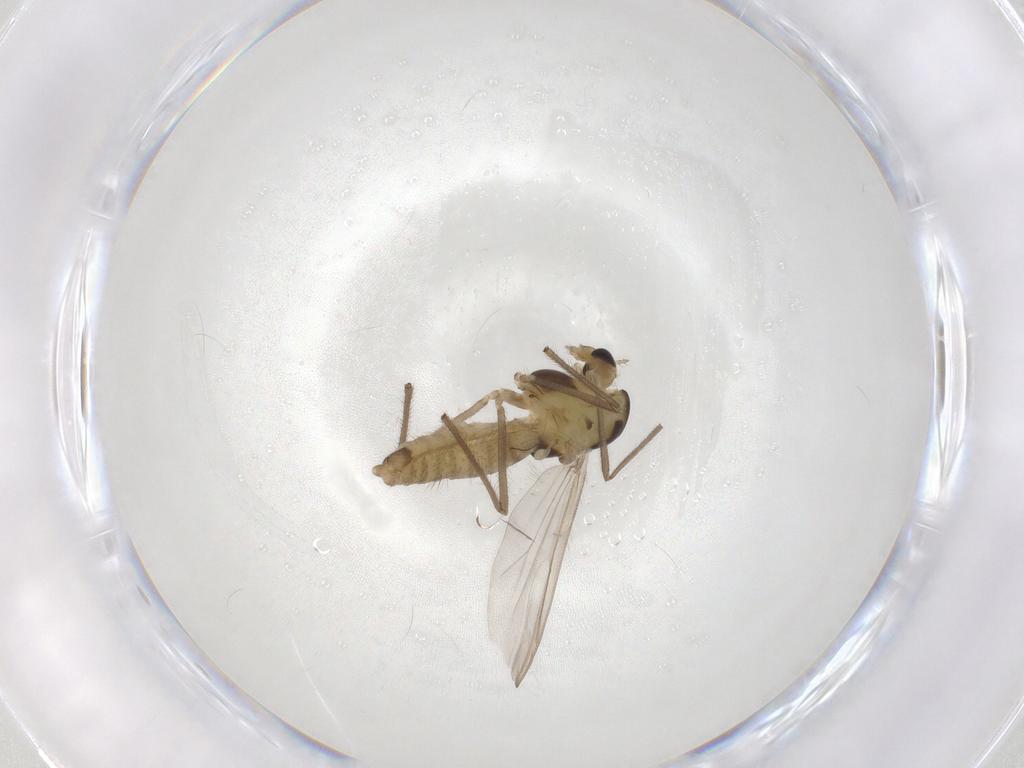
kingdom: Animalia
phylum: Arthropoda
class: Insecta
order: Diptera
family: Chironomidae
